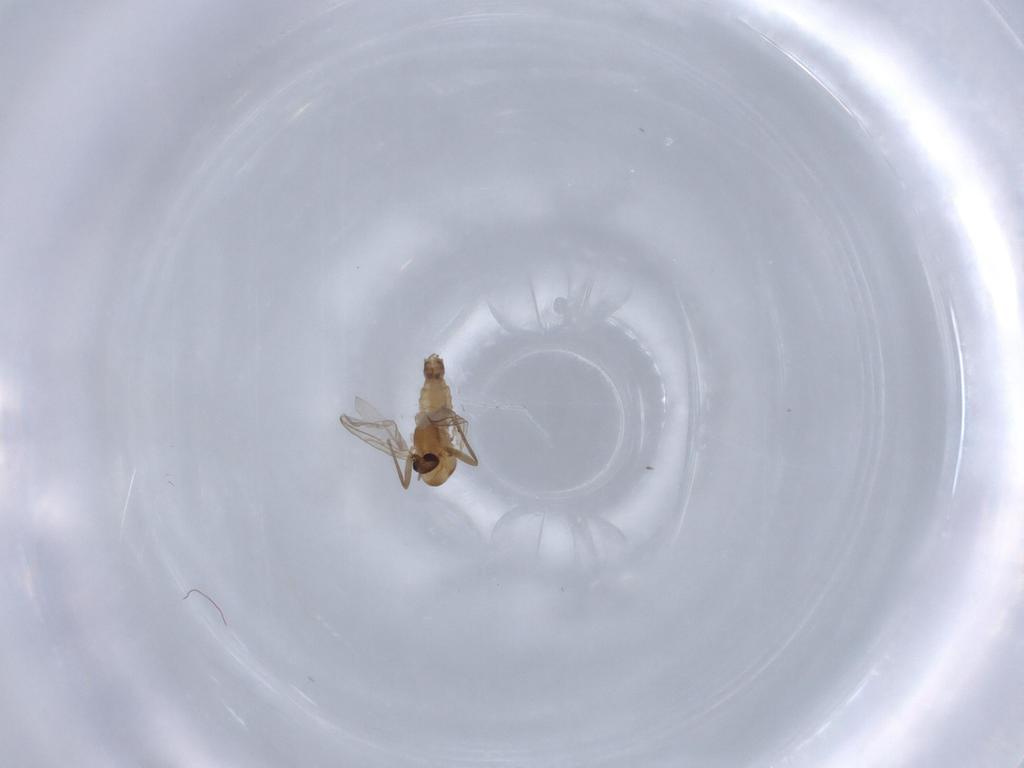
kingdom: Animalia
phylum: Arthropoda
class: Insecta
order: Diptera
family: Chironomidae
